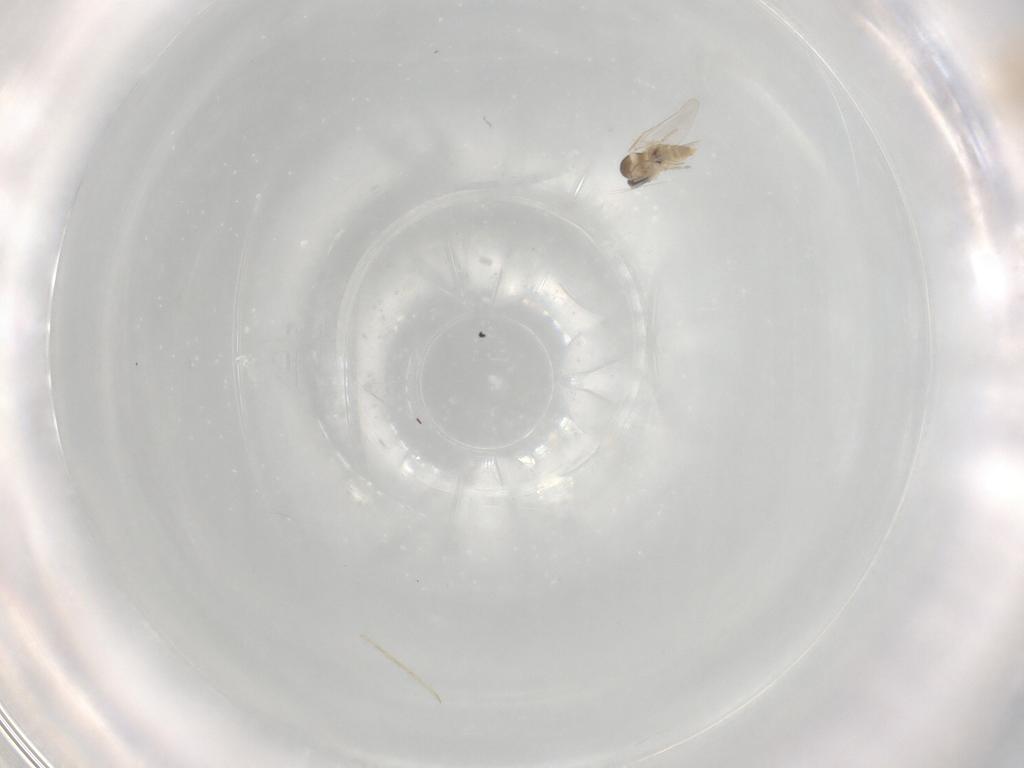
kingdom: Animalia
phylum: Arthropoda
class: Insecta
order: Diptera
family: Cecidomyiidae
